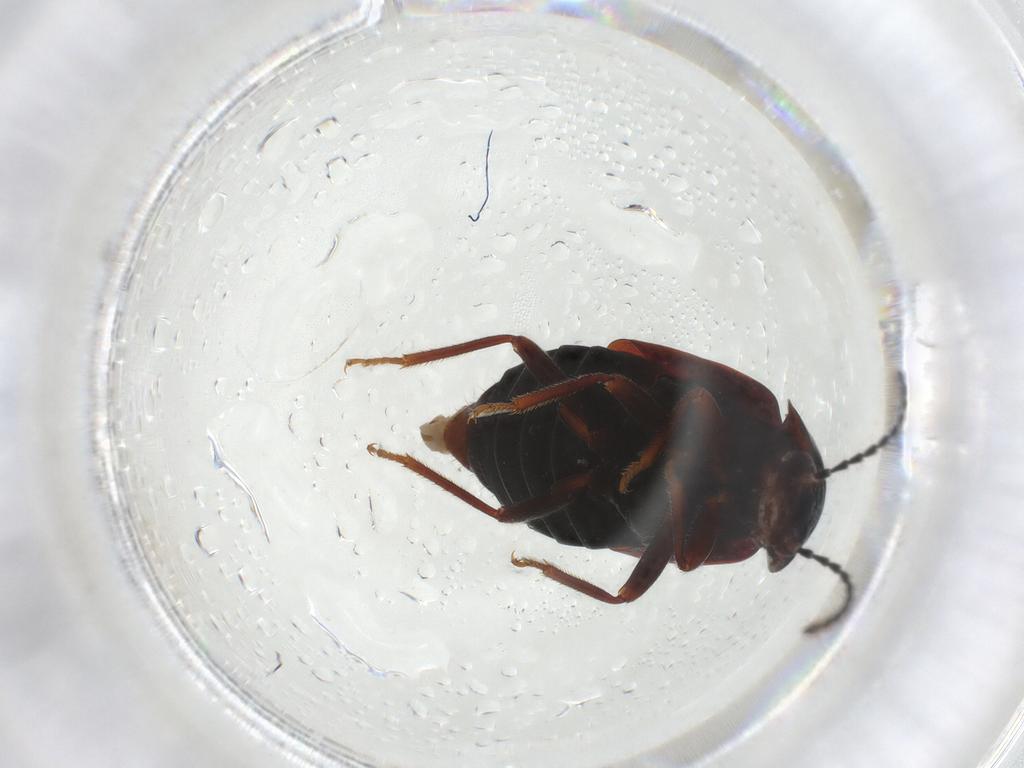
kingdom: Animalia
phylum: Arthropoda
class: Insecta
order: Coleoptera
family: Staphylinidae
